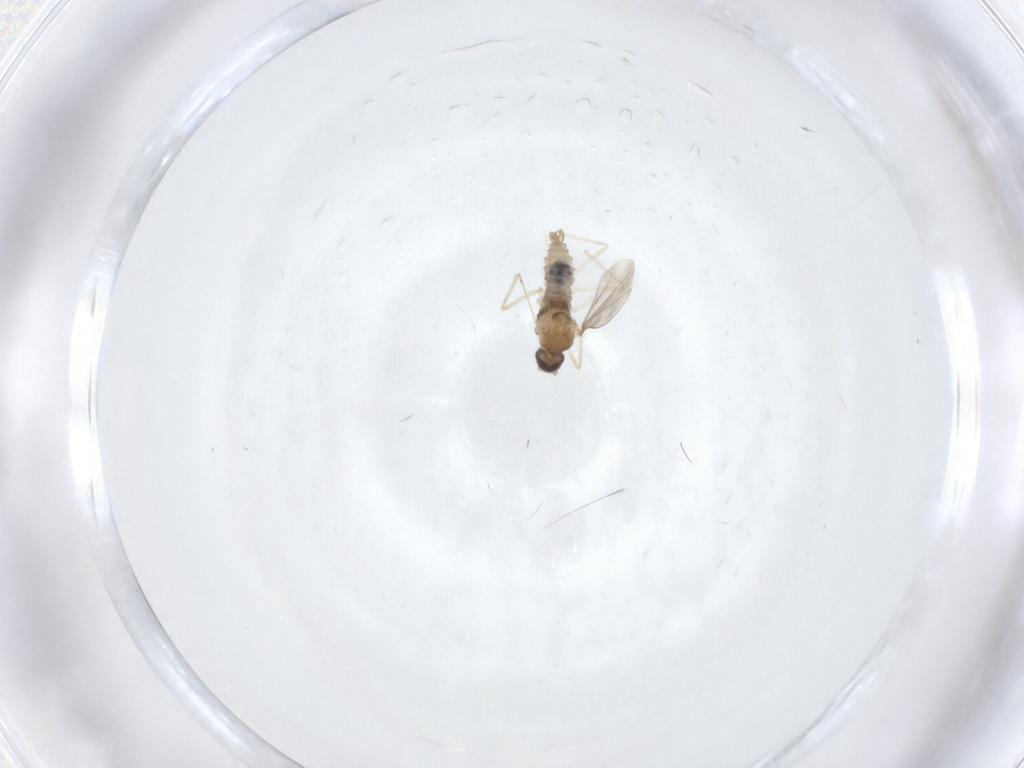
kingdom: Animalia
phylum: Arthropoda
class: Insecta
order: Diptera
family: Cecidomyiidae
